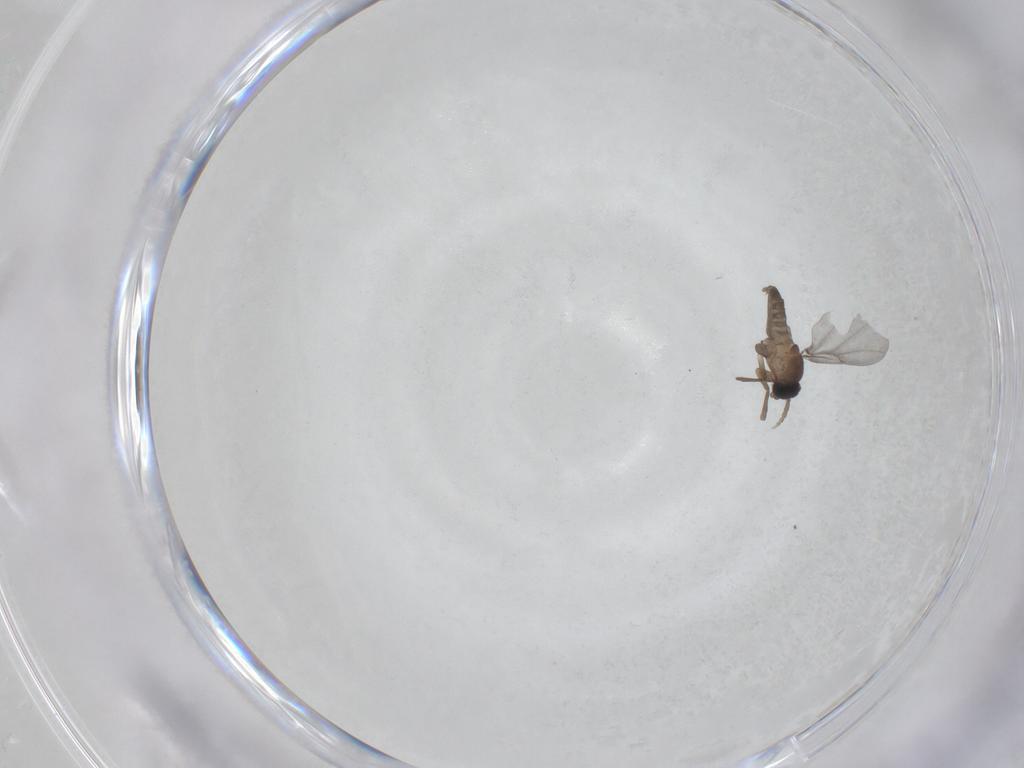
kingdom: Animalia
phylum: Arthropoda
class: Insecta
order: Diptera
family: Phoridae
